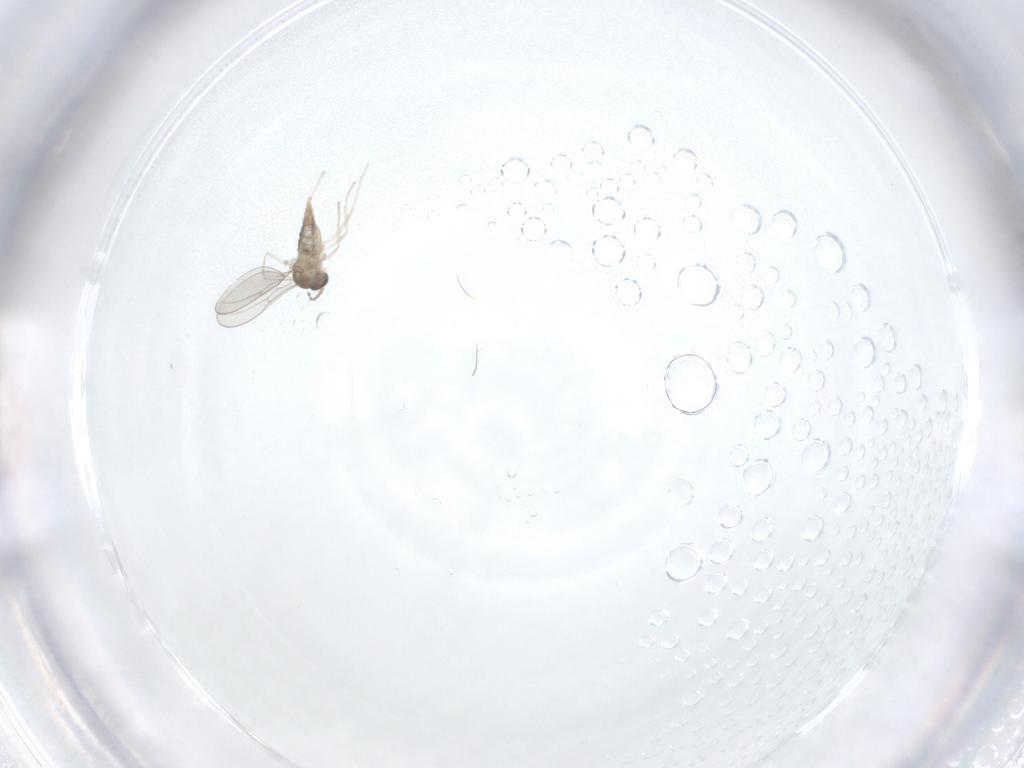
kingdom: Animalia
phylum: Arthropoda
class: Insecta
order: Diptera
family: Cecidomyiidae
